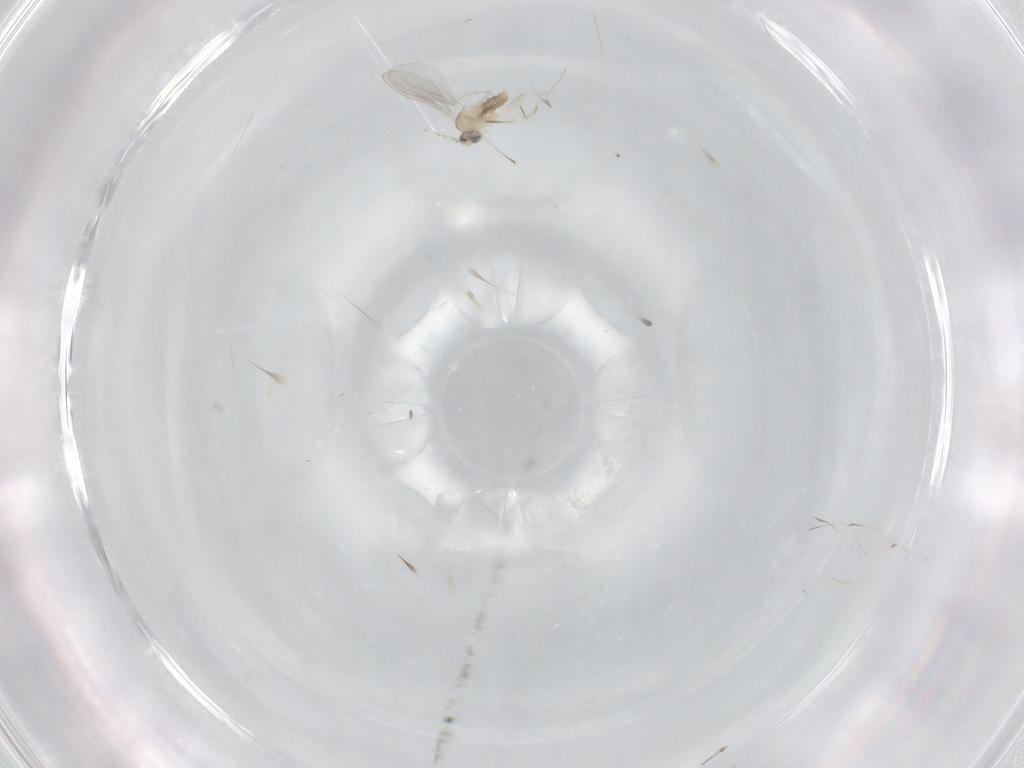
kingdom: Animalia
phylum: Arthropoda
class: Insecta
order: Diptera
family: Cecidomyiidae
